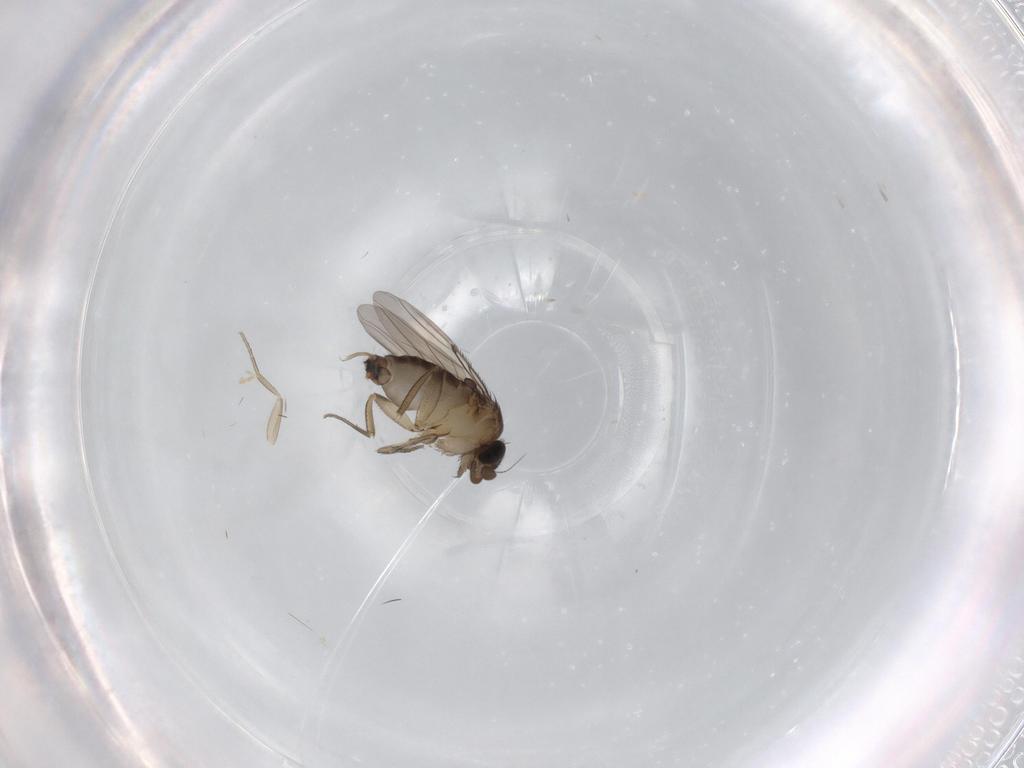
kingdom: Animalia
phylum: Arthropoda
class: Insecta
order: Diptera
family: Phoridae
